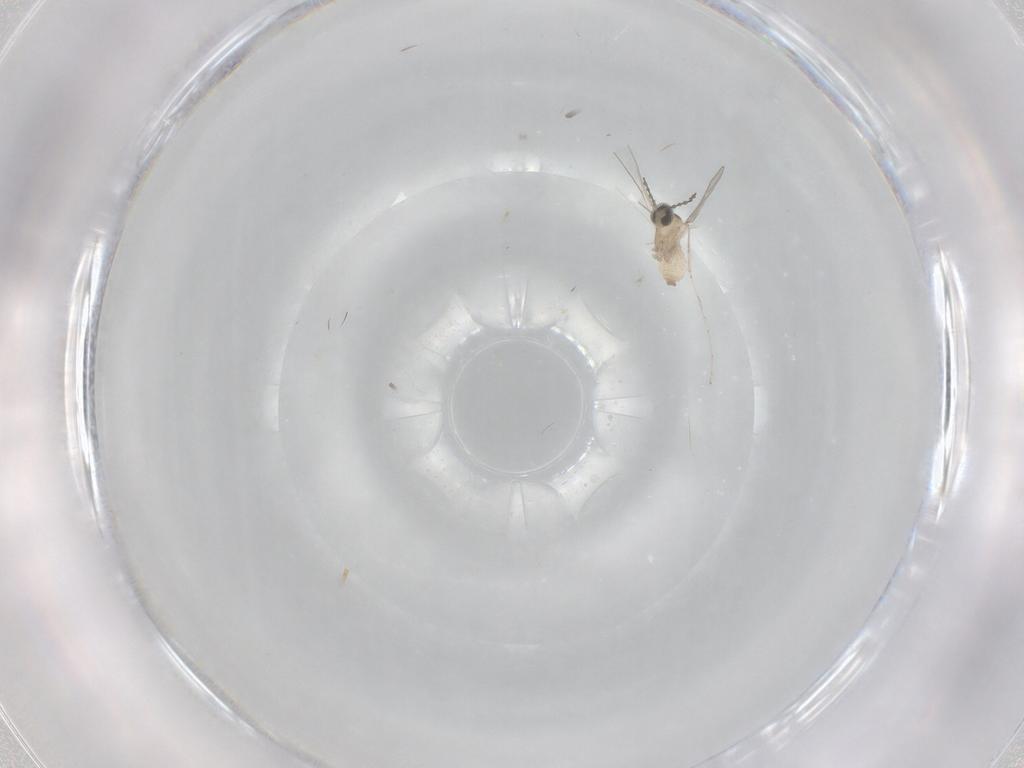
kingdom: Animalia
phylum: Arthropoda
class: Insecta
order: Diptera
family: Cecidomyiidae
